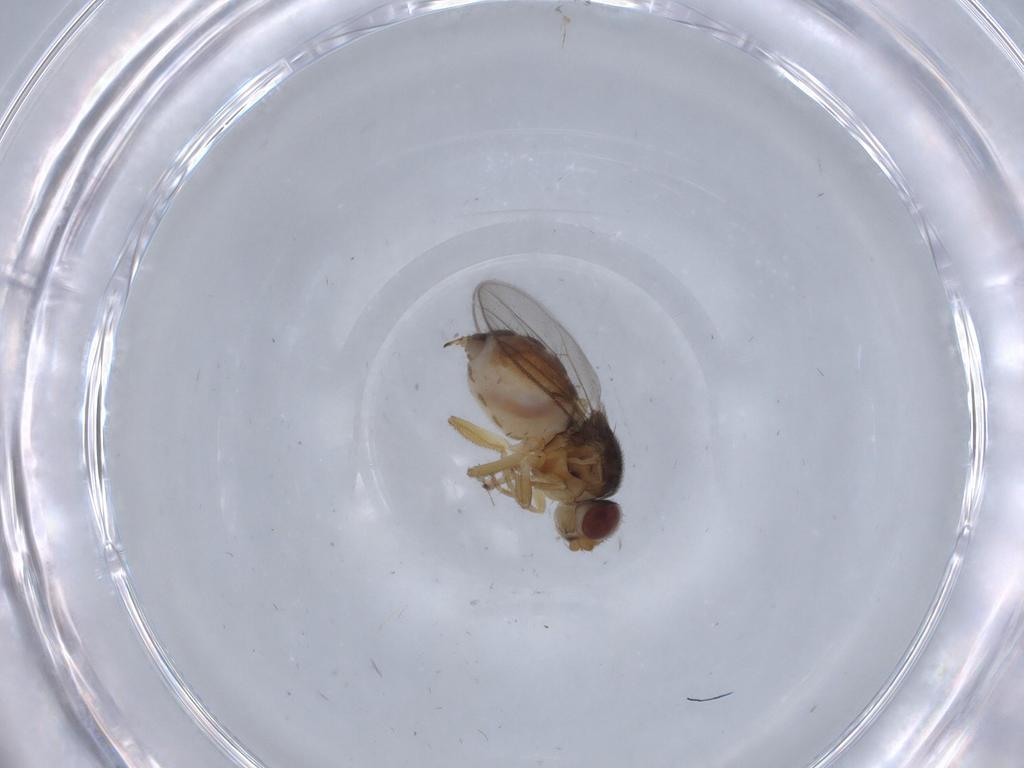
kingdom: Animalia
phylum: Arthropoda
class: Insecta
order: Diptera
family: Chloropidae
